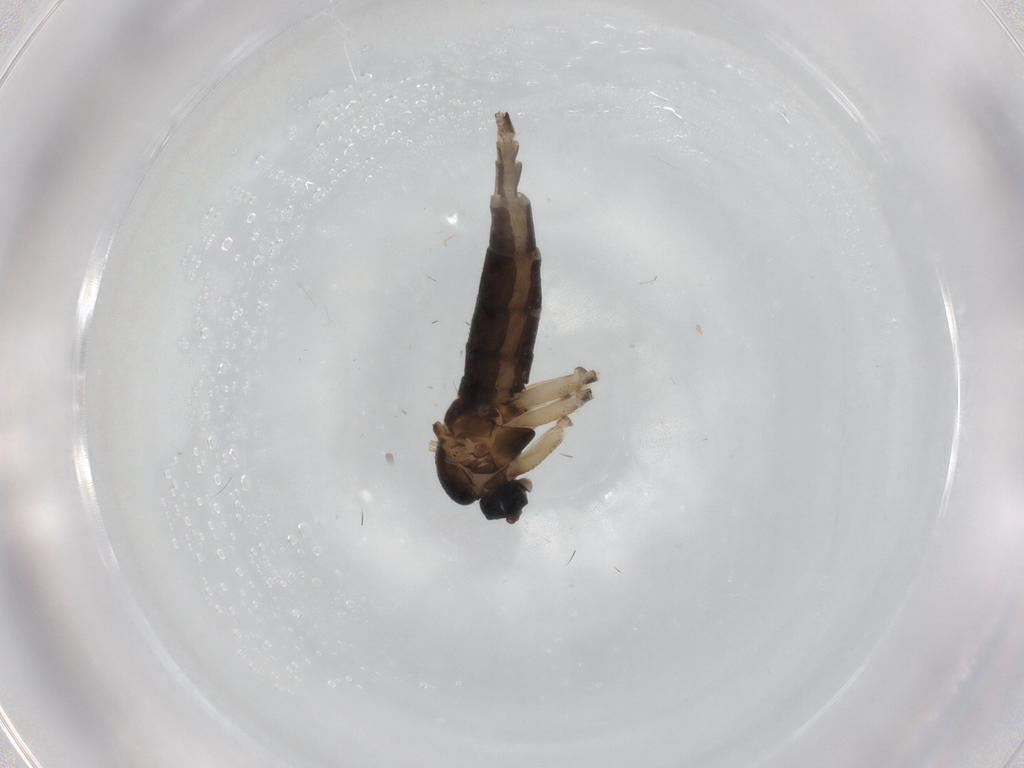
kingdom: Animalia
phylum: Arthropoda
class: Insecta
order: Diptera
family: Sciaridae
